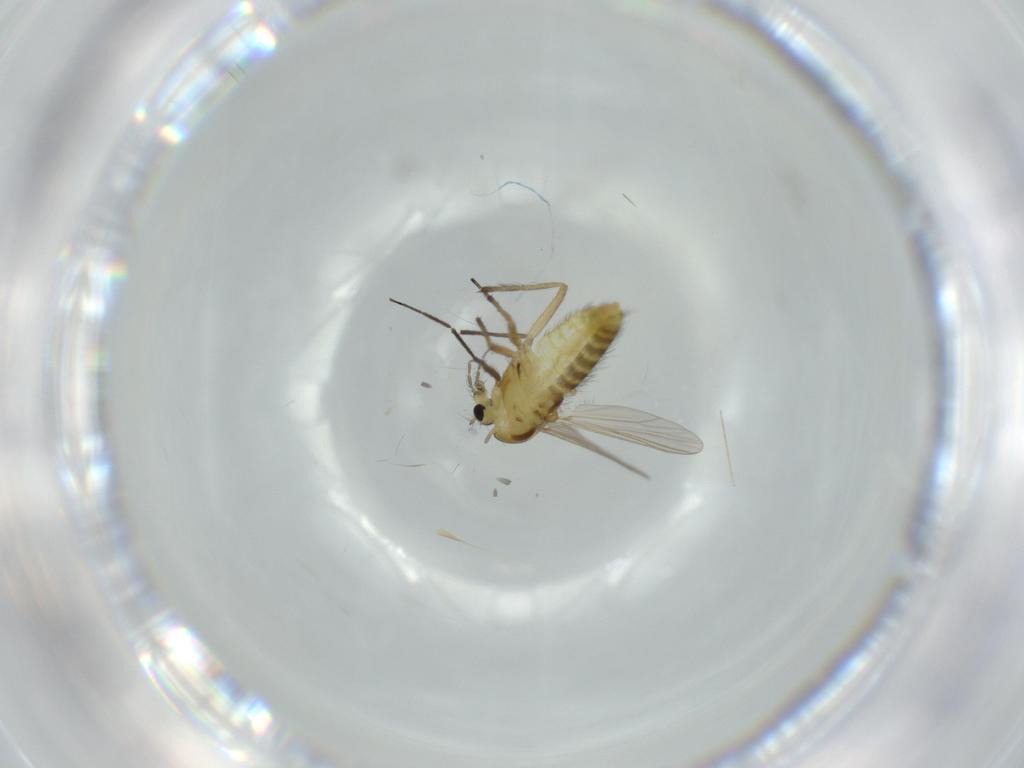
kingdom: Animalia
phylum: Arthropoda
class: Insecta
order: Diptera
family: Chironomidae
